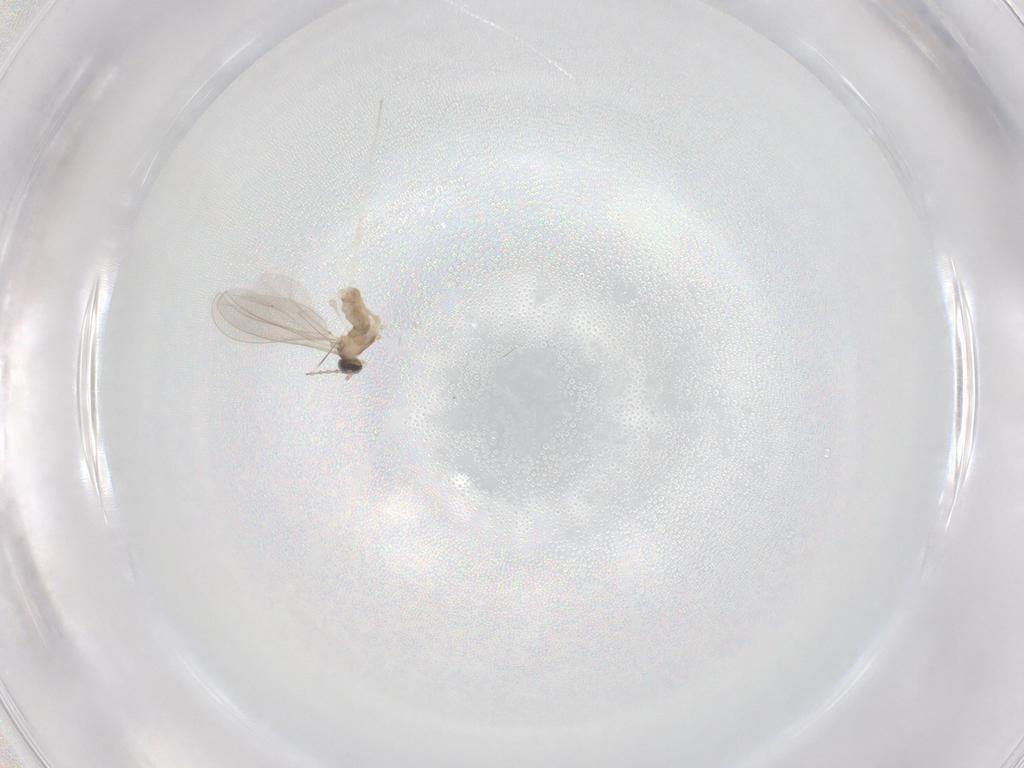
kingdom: Animalia
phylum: Arthropoda
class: Insecta
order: Diptera
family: Cecidomyiidae
